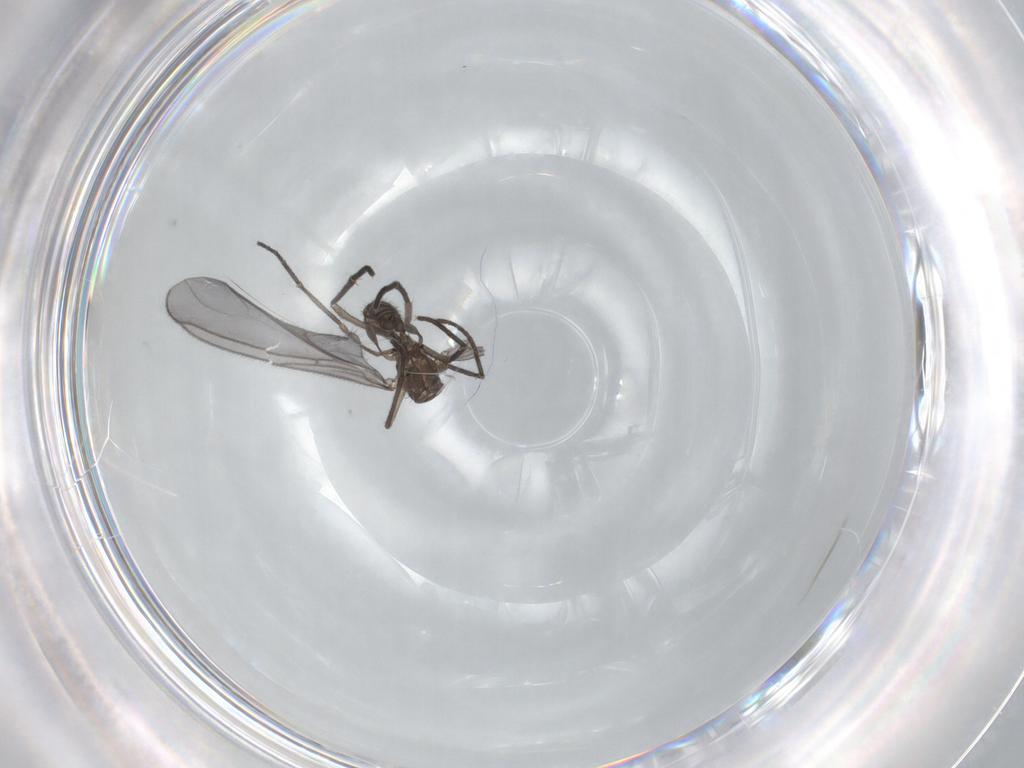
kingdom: Animalia
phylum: Arthropoda
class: Insecta
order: Diptera
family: Sciaridae
